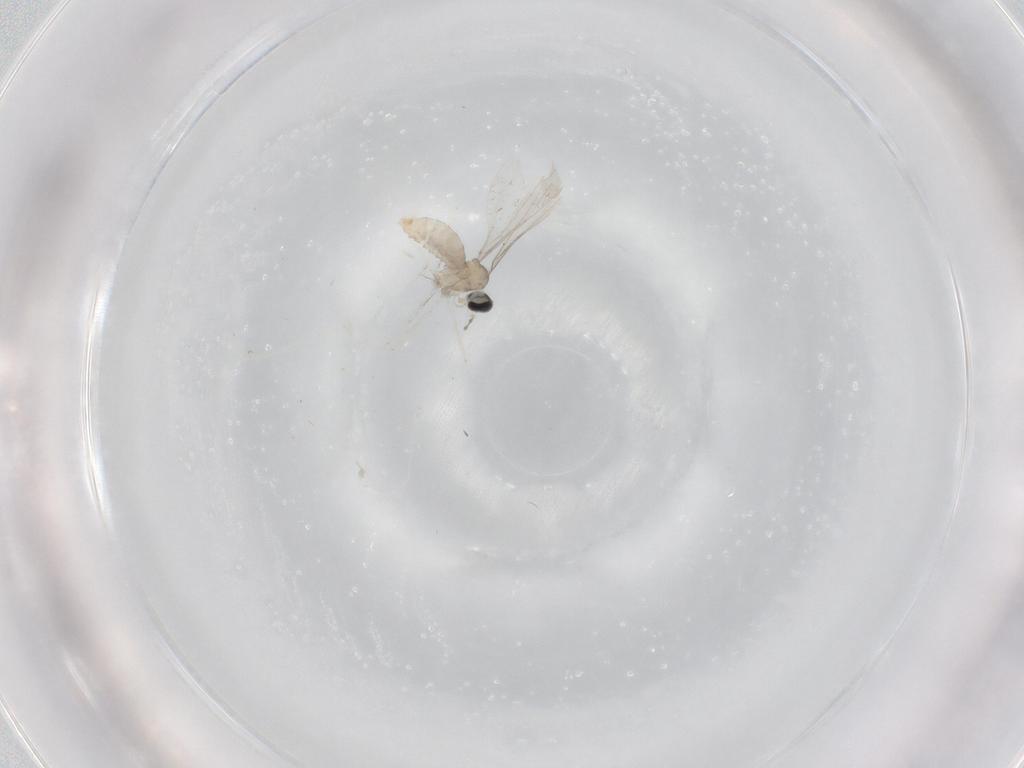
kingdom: Animalia
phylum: Arthropoda
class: Insecta
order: Diptera
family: Cecidomyiidae
